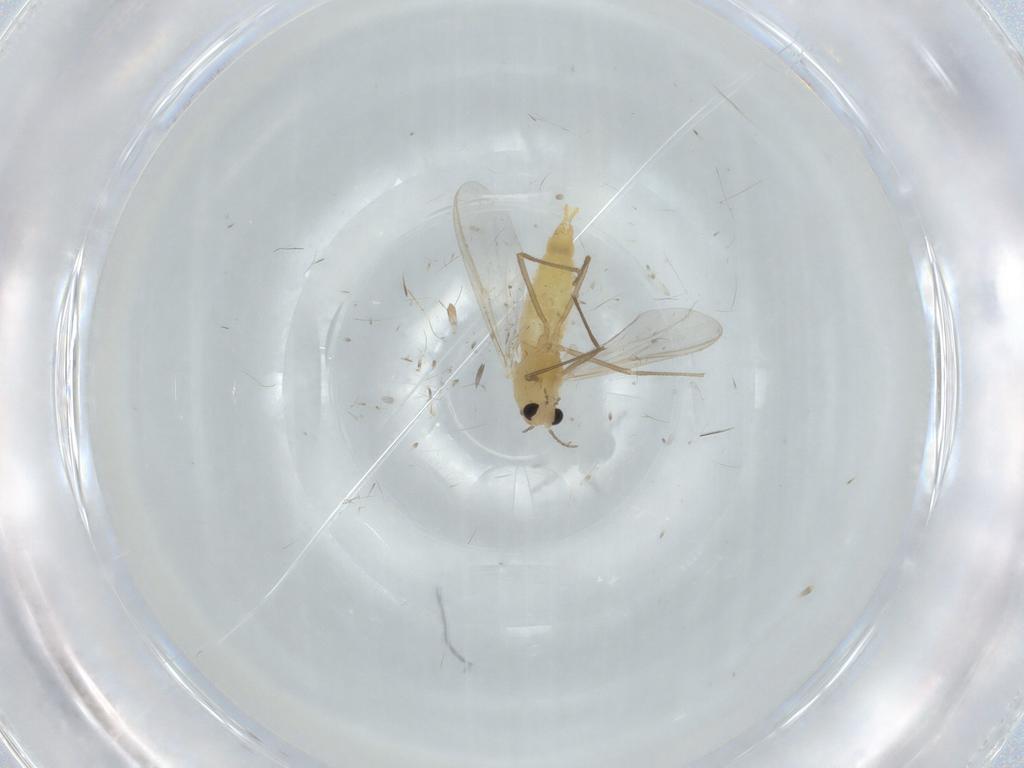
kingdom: Animalia
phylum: Arthropoda
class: Insecta
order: Diptera
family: Chironomidae
